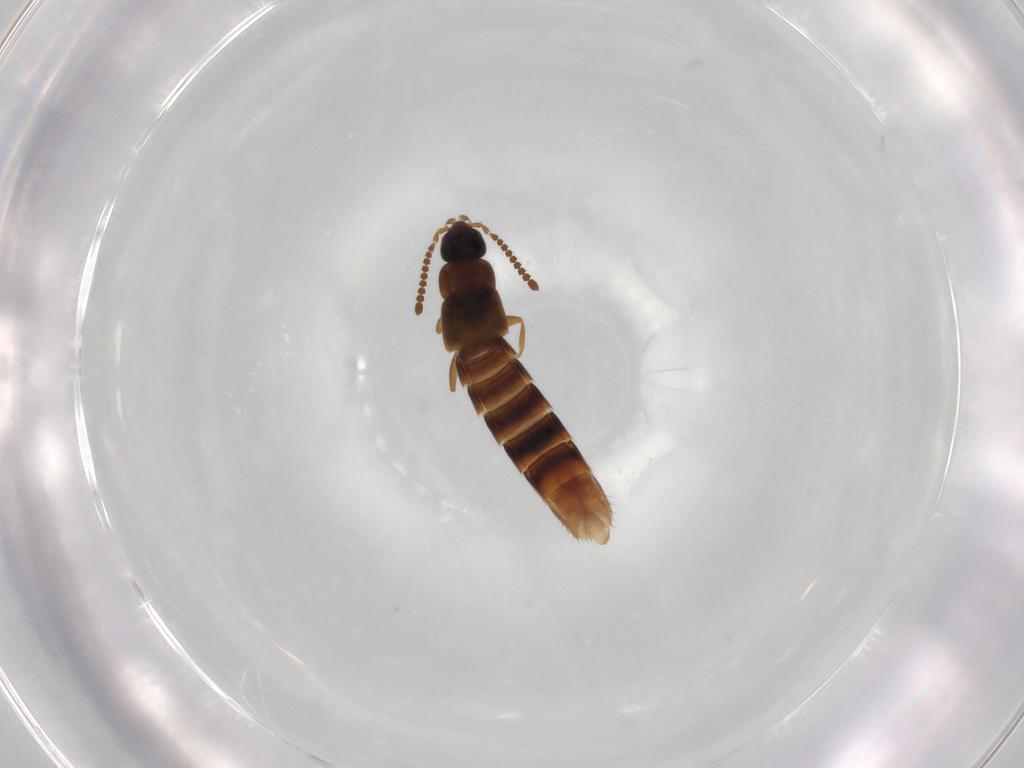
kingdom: Animalia
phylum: Arthropoda
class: Insecta
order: Coleoptera
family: Staphylinidae
